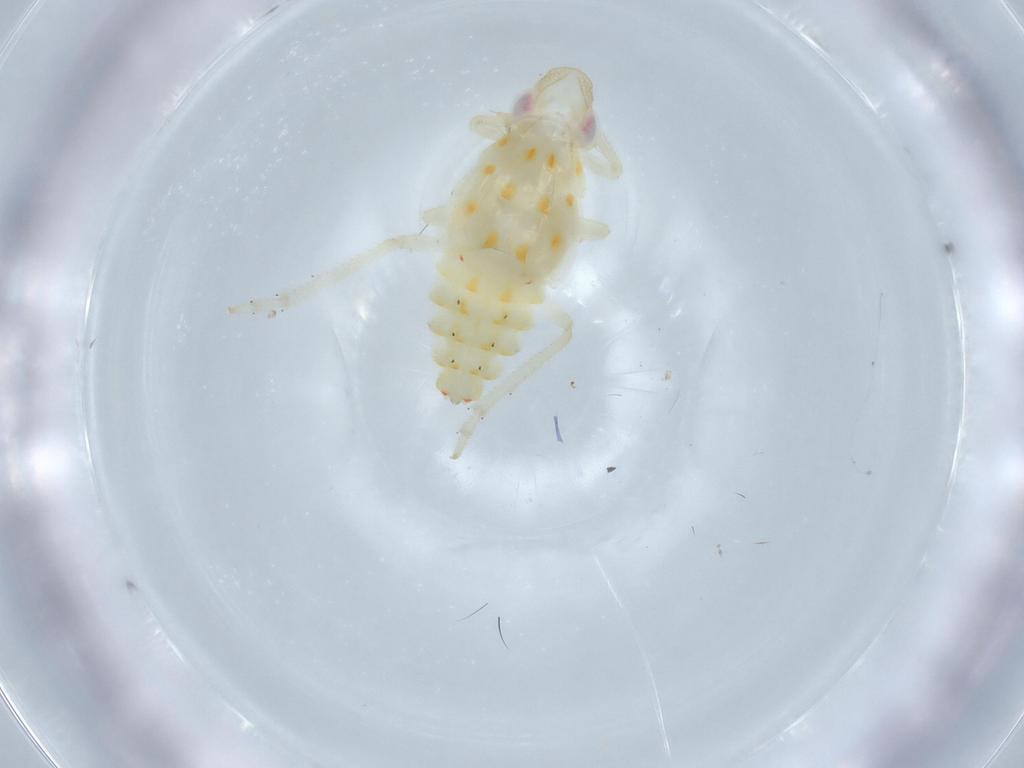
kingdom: Animalia
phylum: Arthropoda
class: Insecta
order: Hemiptera
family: Tropiduchidae
